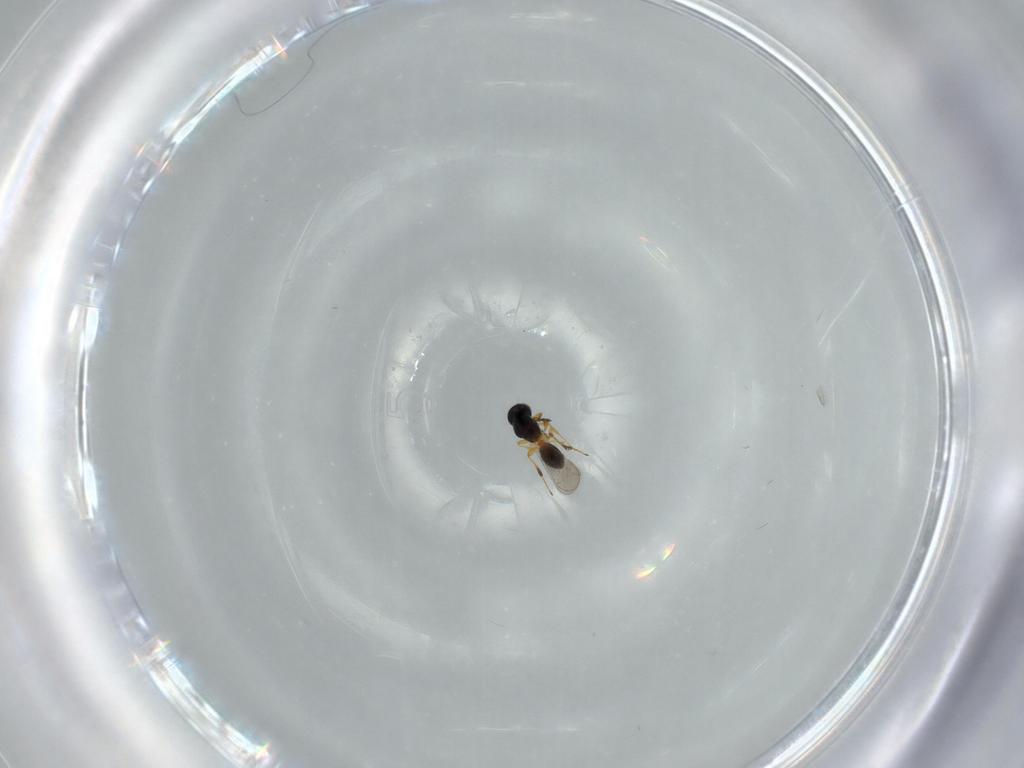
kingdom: Animalia
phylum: Arthropoda
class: Insecta
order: Hymenoptera
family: Platygastridae
